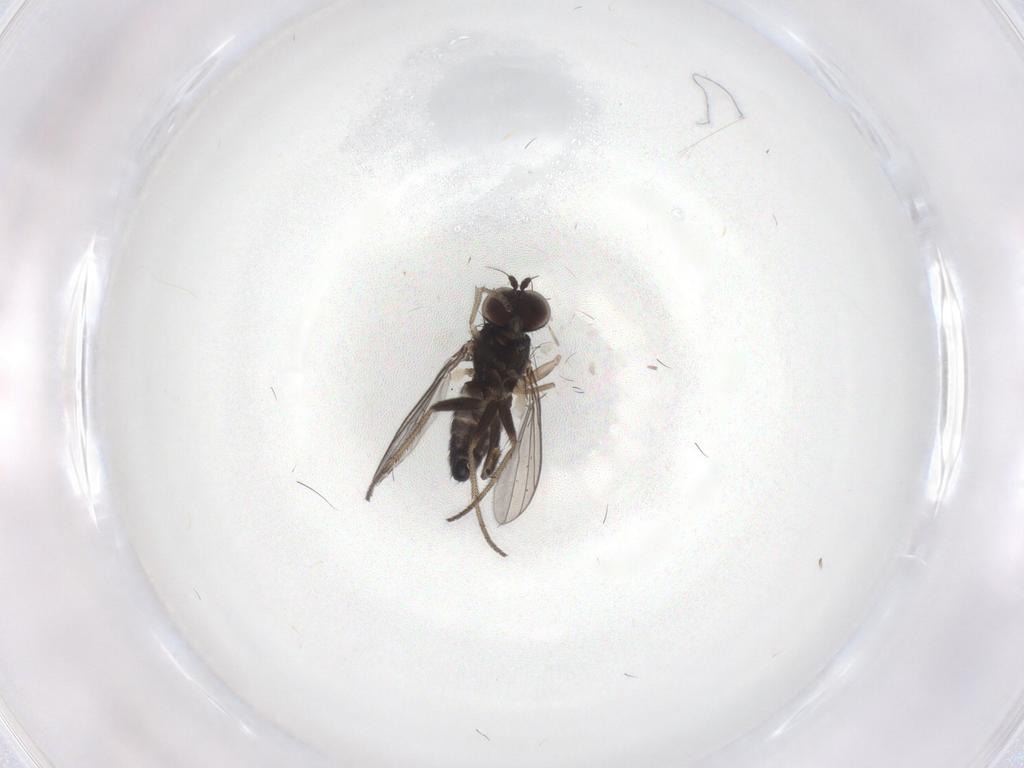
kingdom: Animalia
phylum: Arthropoda
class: Insecta
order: Diptera
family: Dolichopodidae
